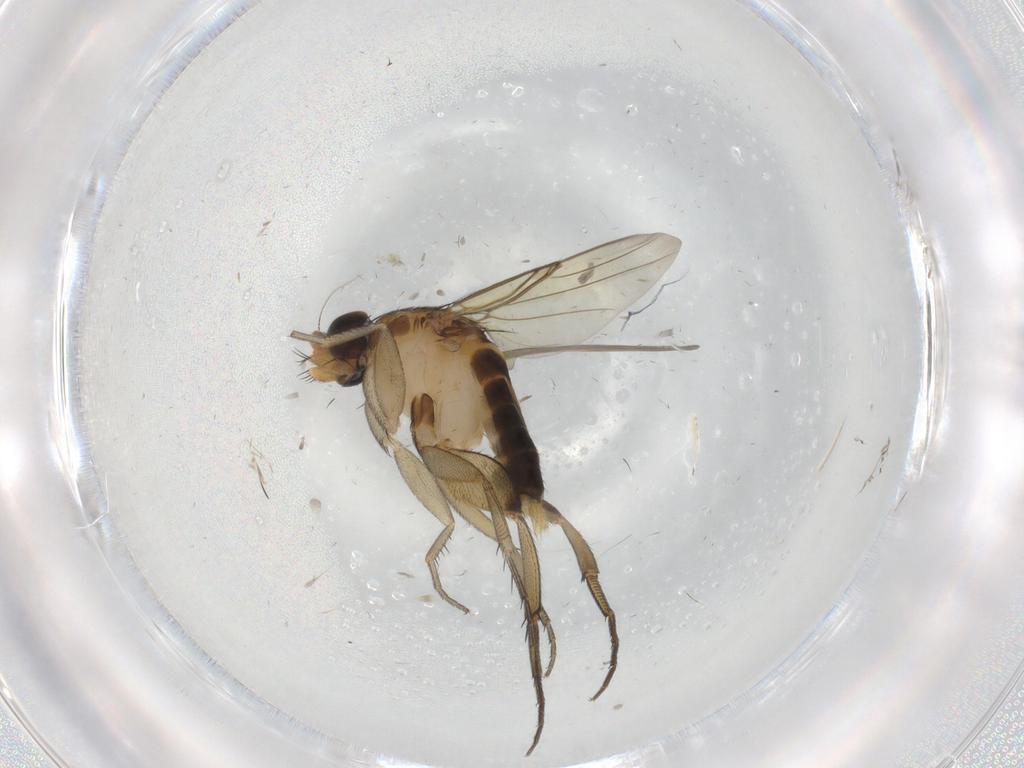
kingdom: Animalia
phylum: Arthropoda
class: Insecta
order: Diptera
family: Phoridae
